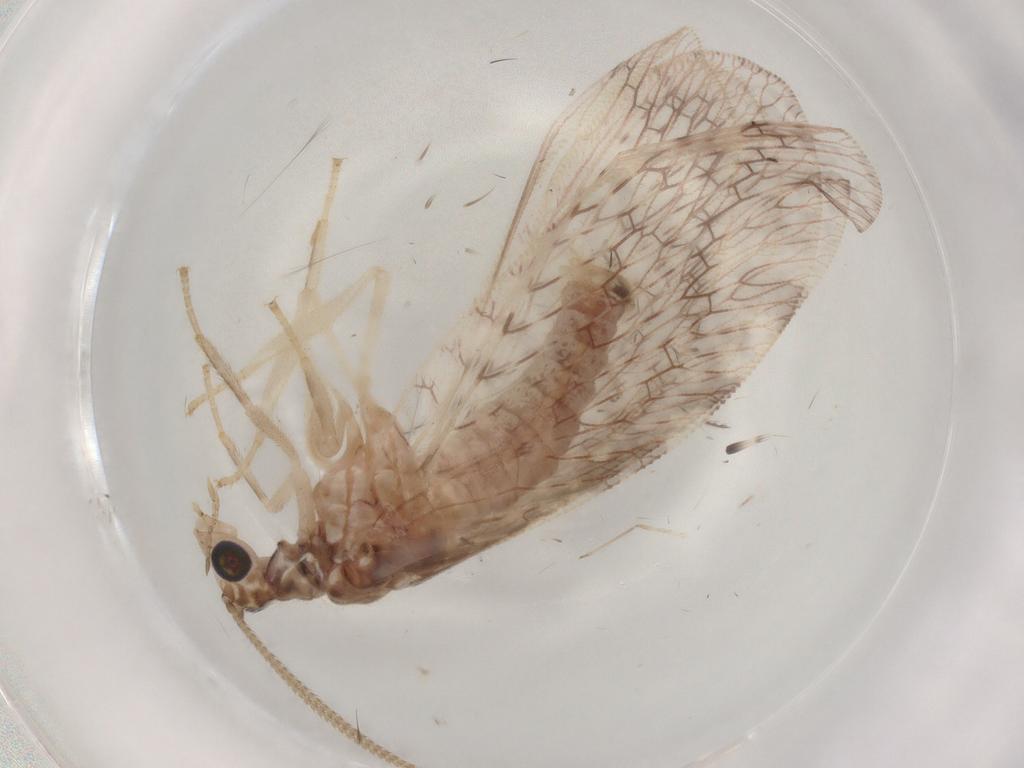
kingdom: Animalia
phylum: Arthropoda
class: Insecta
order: Neuroptera
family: Hemerobiidae
